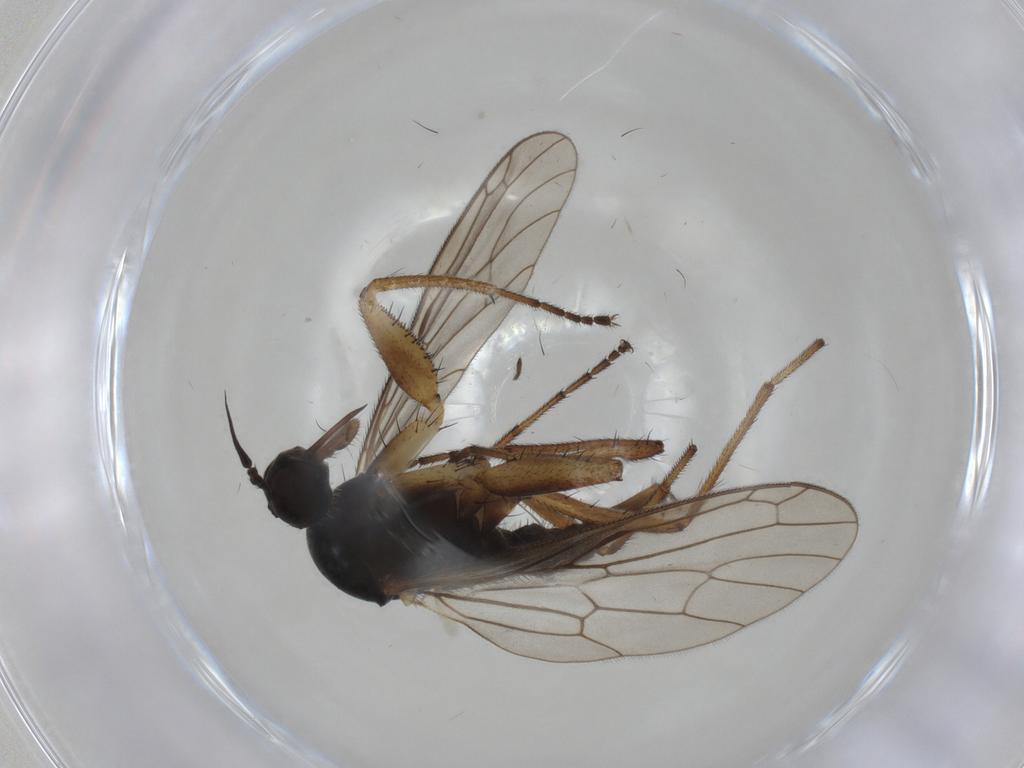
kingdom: Animalia
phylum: Arthropoda
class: Insecta
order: Diptera
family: Empididae
